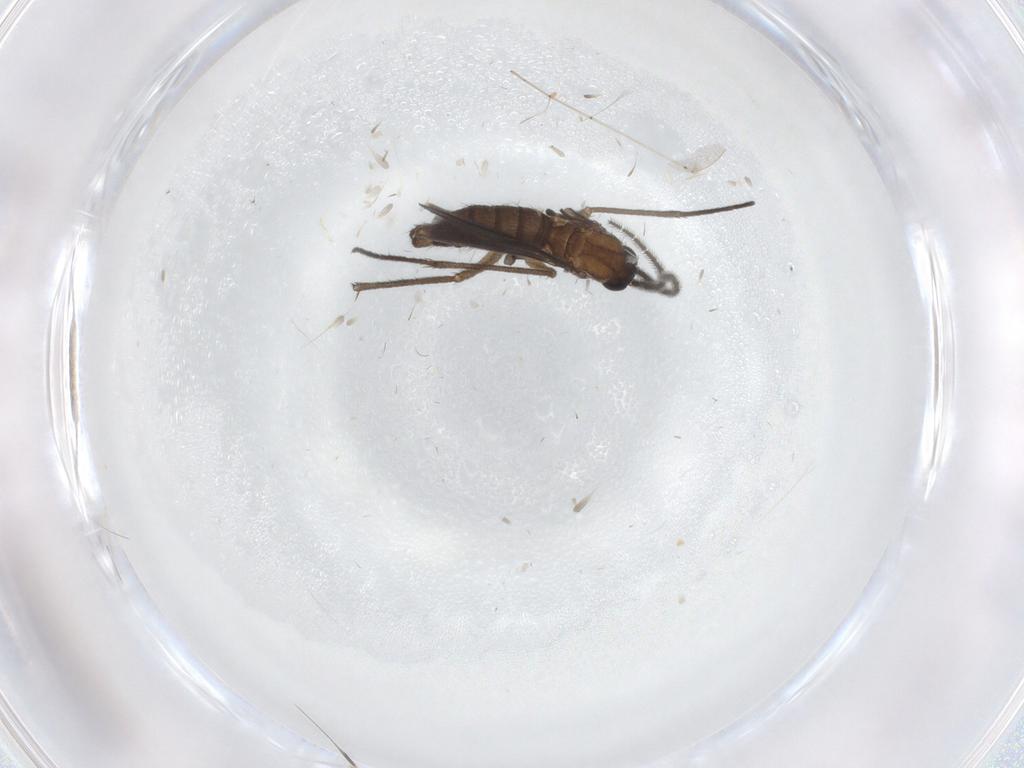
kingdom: Animalia
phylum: Arthropoda
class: Insecta
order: Diptera
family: Cecidomyiidae
